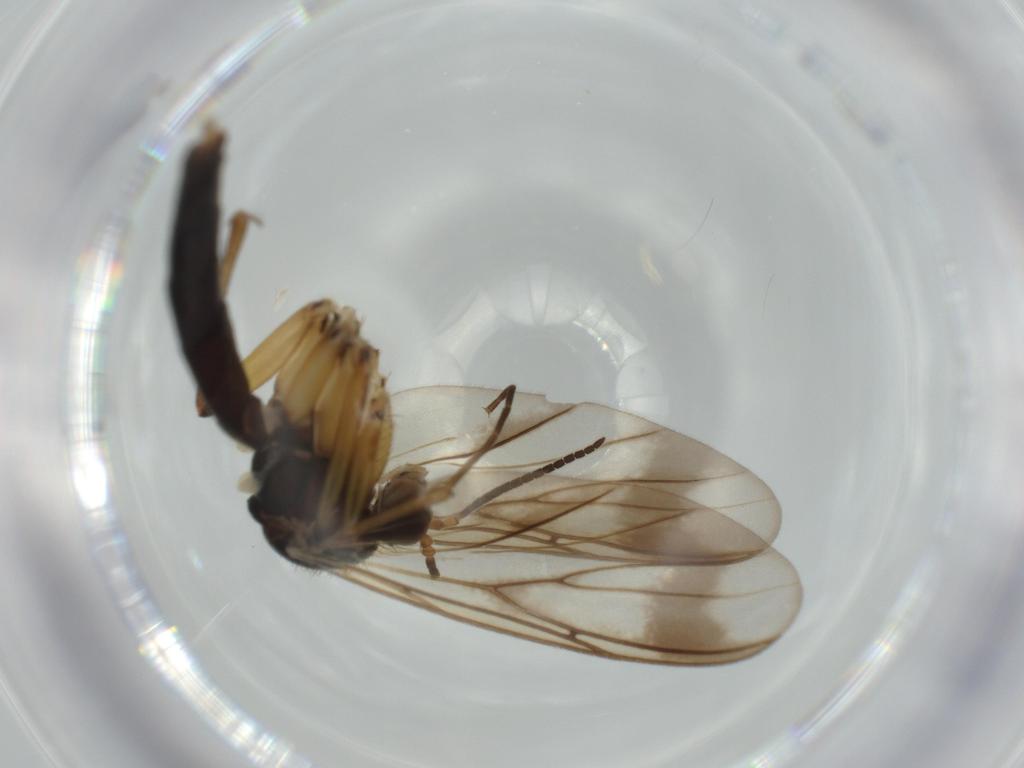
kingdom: Animalia
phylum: Arthropoda
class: Insecta
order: Diptera
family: Mycetophilidae
